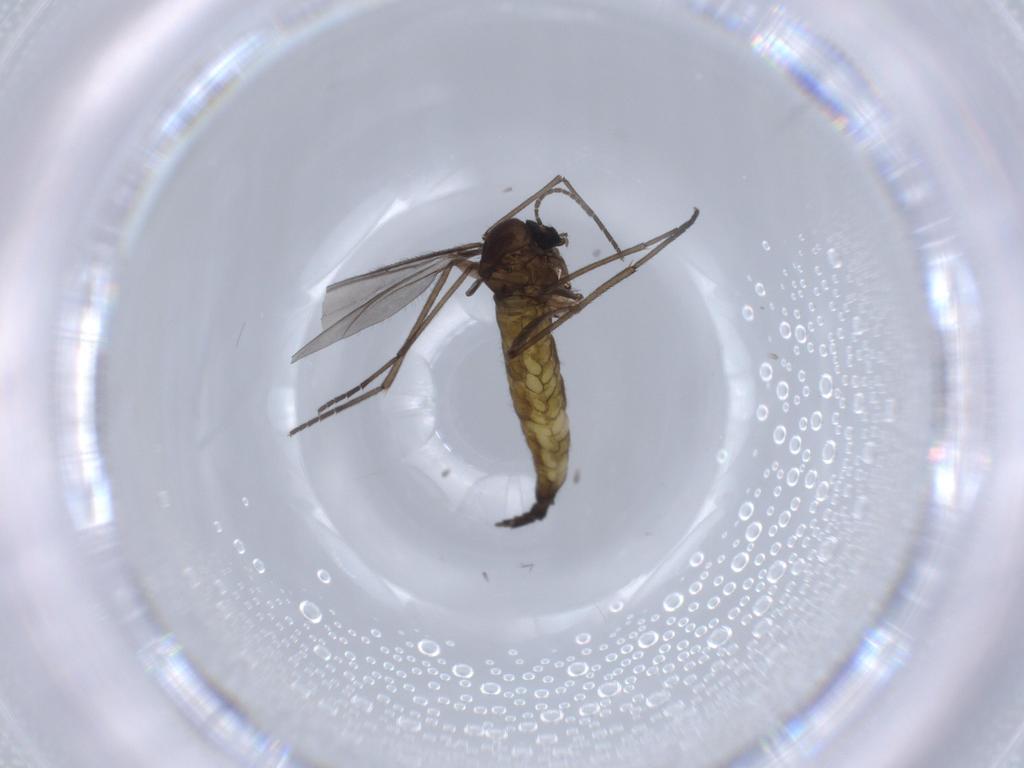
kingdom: Animalia
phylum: Arthropoda
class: Insecta
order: Diptera
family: Sciaridae
